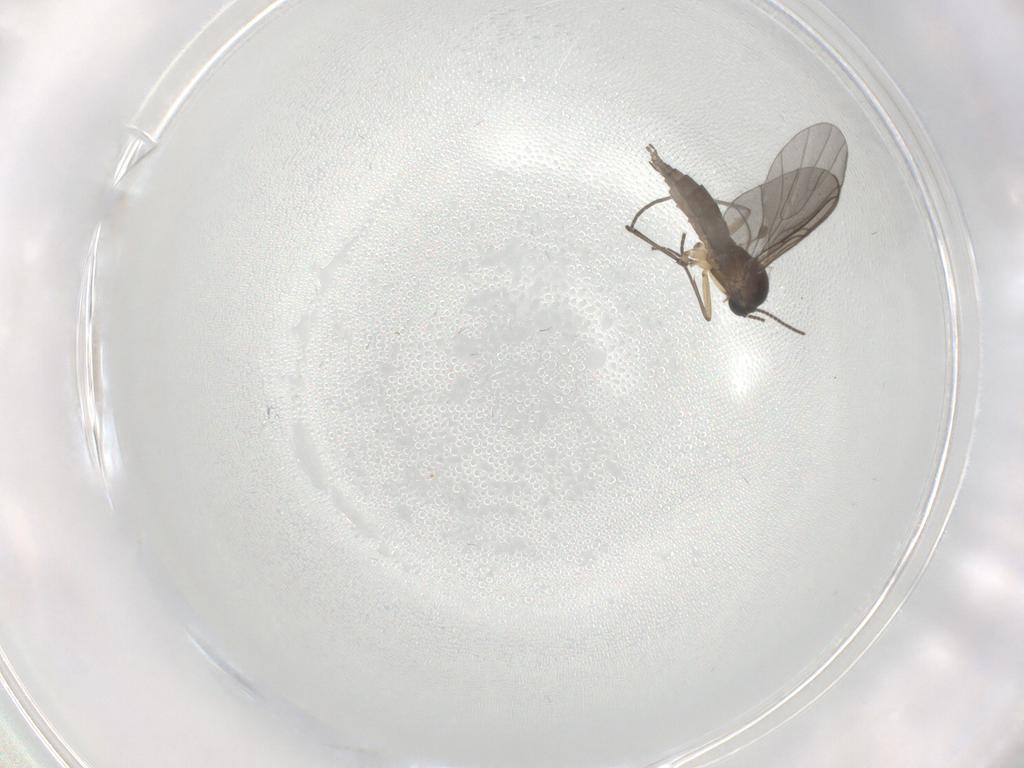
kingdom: Animalia
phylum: Arthropoda
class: Insecta
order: Diptera
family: Sciaridae
